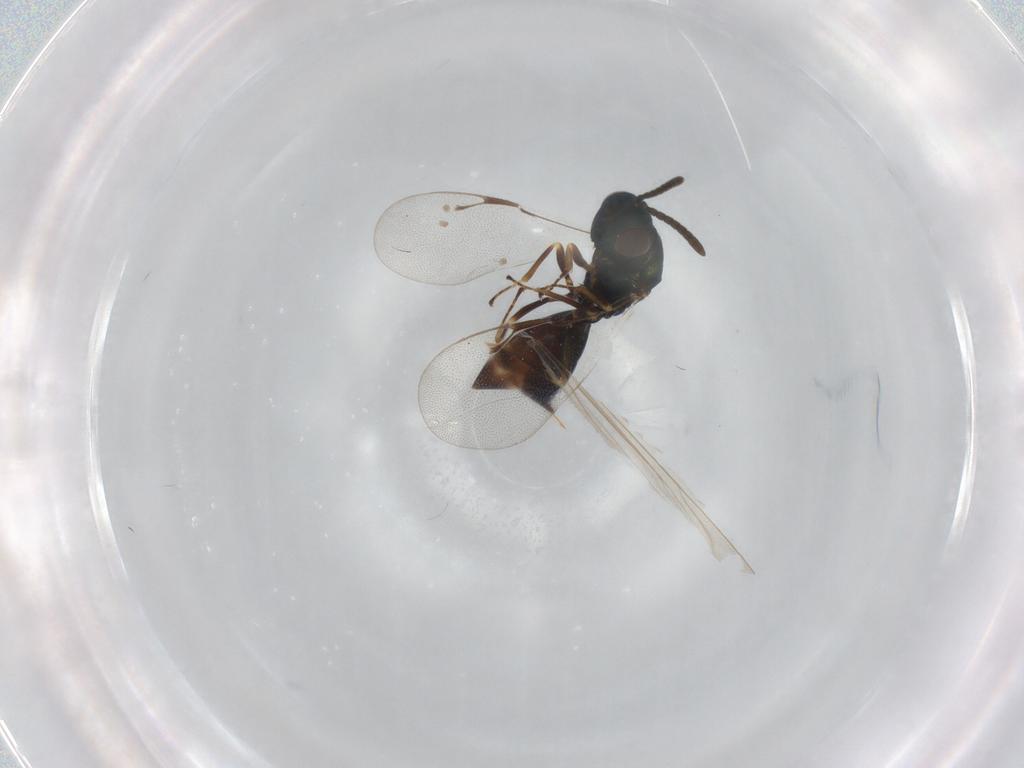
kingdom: Animalia
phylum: Arthropoda
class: Insecta
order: Hymenoptera
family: Pteromalidae
